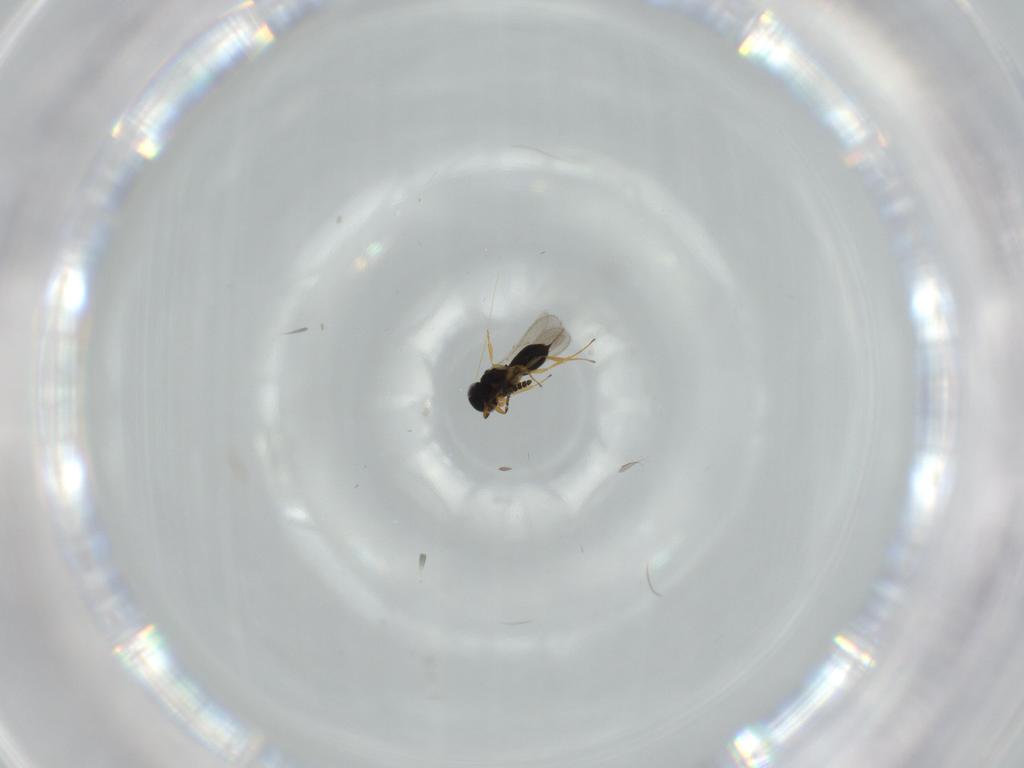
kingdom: Animalia
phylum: Arthropoda
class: Insecta
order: Hymenoptera
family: Scelionidae
